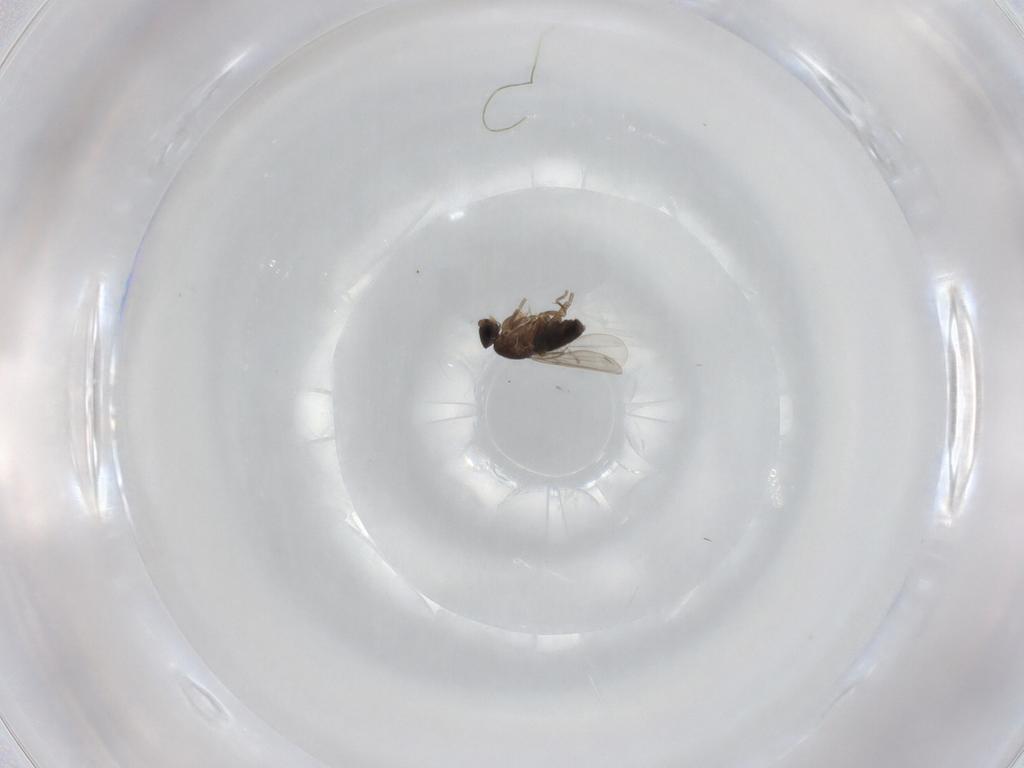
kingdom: Animalia
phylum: Arthropoda
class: Insecta
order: Diptera
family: Phoridae
